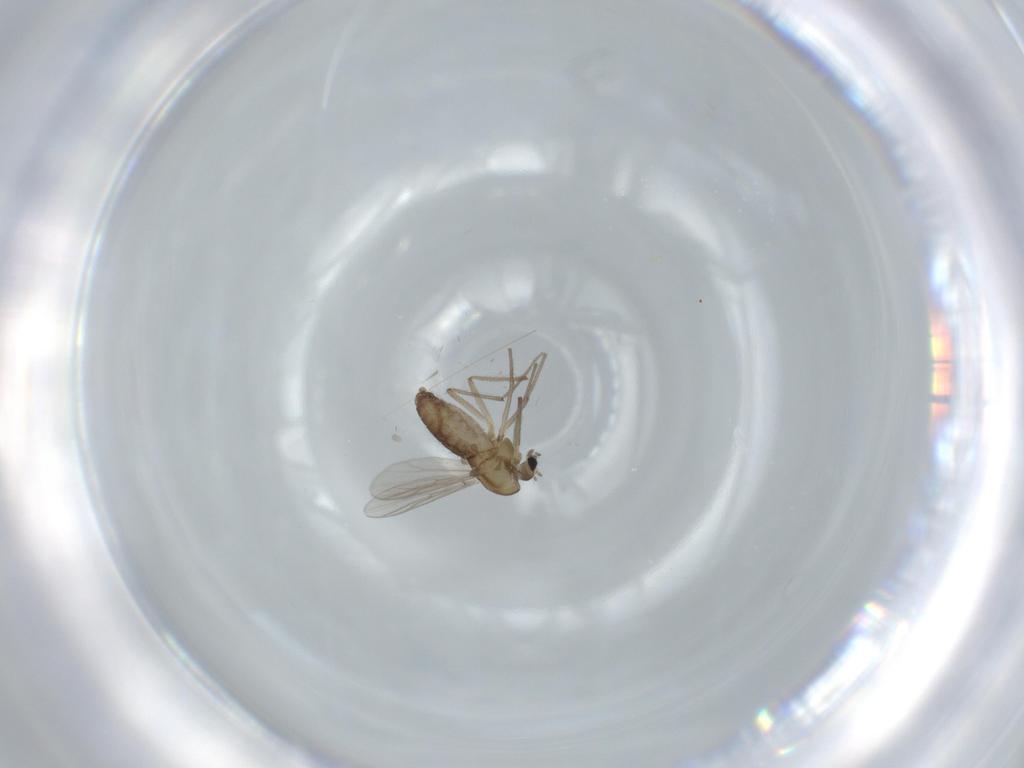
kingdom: Animalia
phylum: Arthropoda
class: Insecta
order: Diptera
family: Chironomidae
